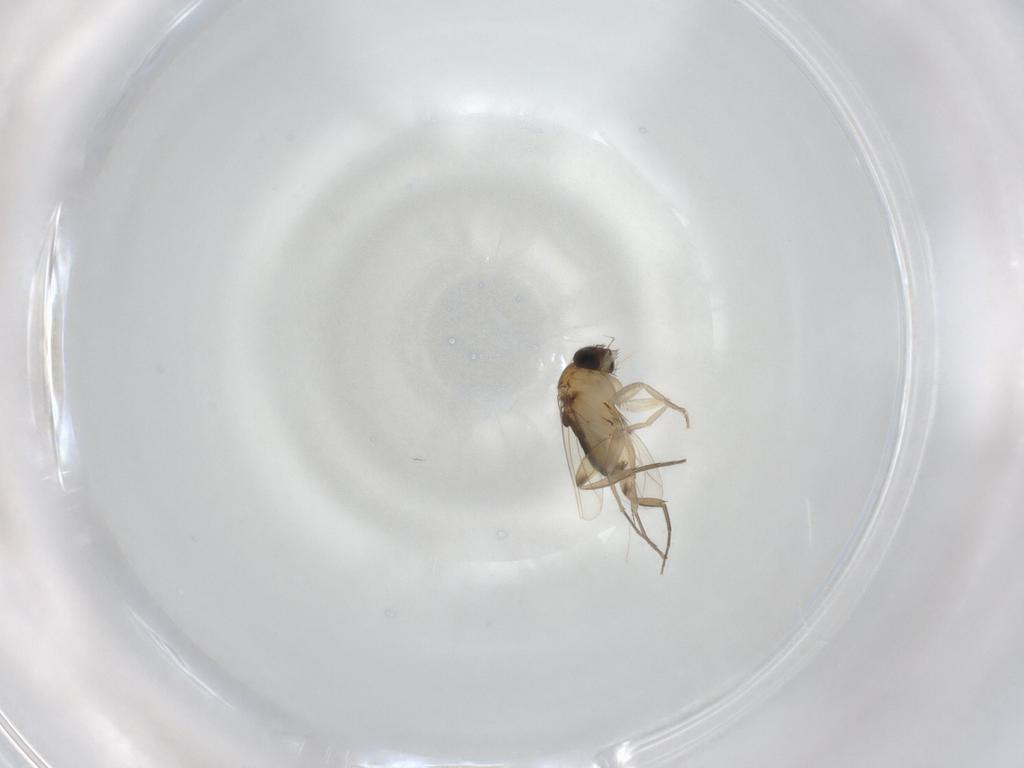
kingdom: Animalia
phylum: Arthropoda
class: Insecta
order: Diptera
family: Phoridae
